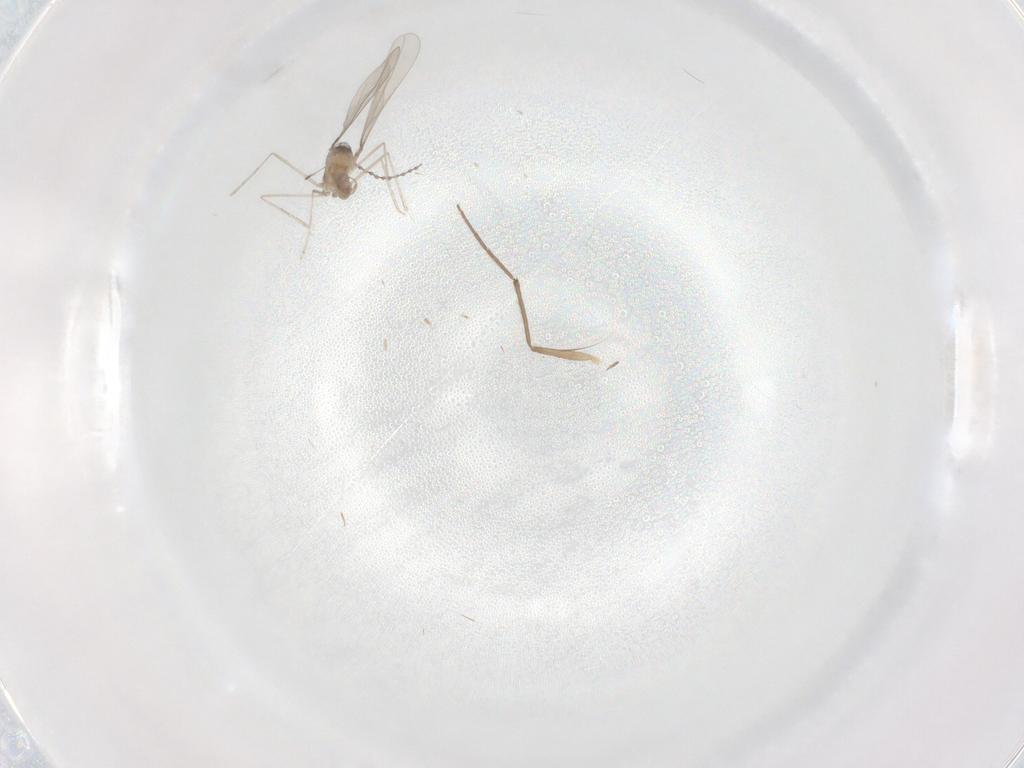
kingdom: Animalia
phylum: Arthropoda
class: Insecta
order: Diptera
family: Cecidomyiidae
